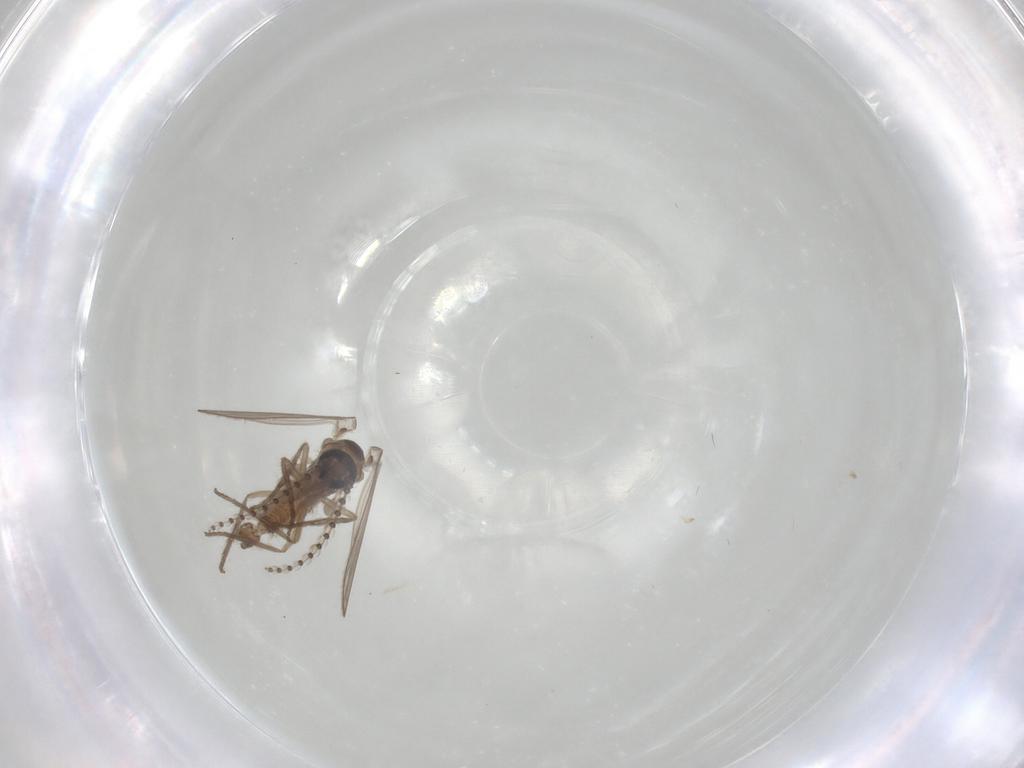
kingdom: Animalia
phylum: Arthropoda
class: Insecta
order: Diptera
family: Psychodidae
